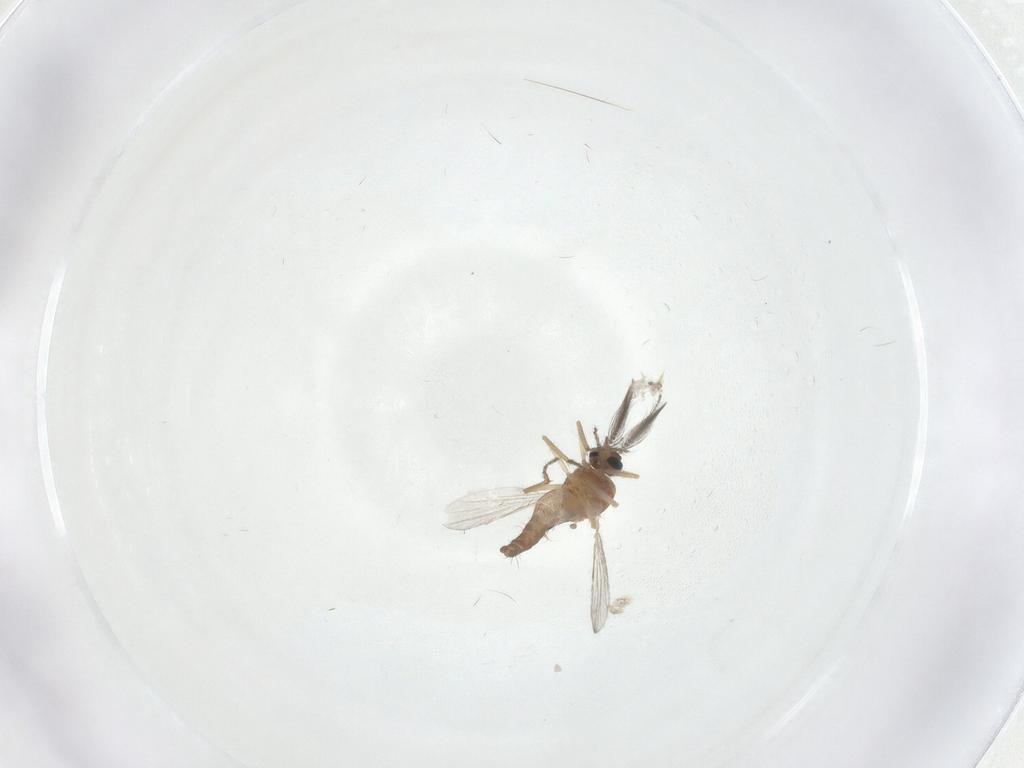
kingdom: Animalia
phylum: Arthropoda
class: Insecta
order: Diptera
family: Ceratopogonidae
